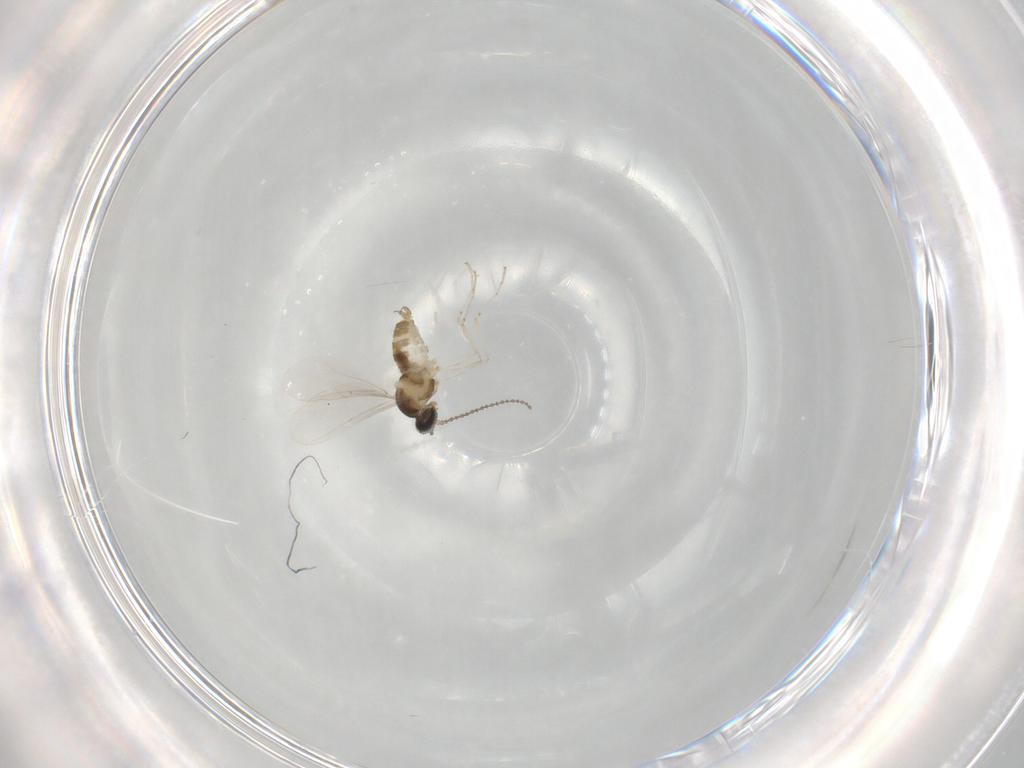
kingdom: Animalia
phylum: Arthropoda
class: Insecta
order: Diptera
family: Cecidomyiidae
